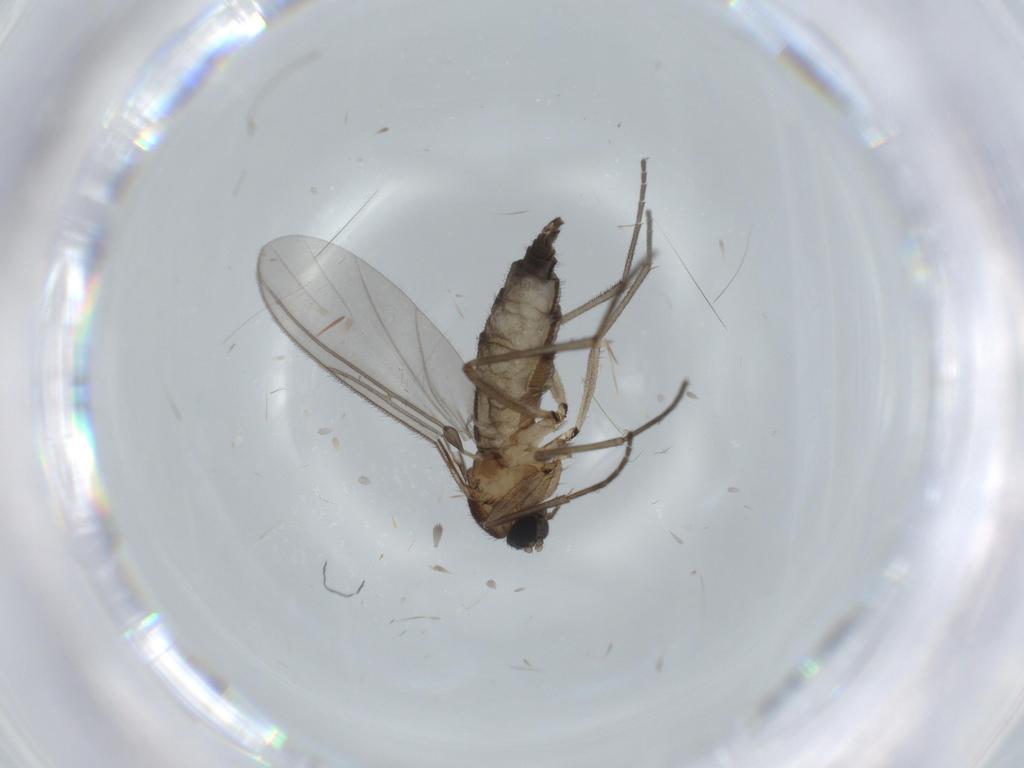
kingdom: Animalia
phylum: Arthropoda
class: Insecta
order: Diptera
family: Sciaridae
